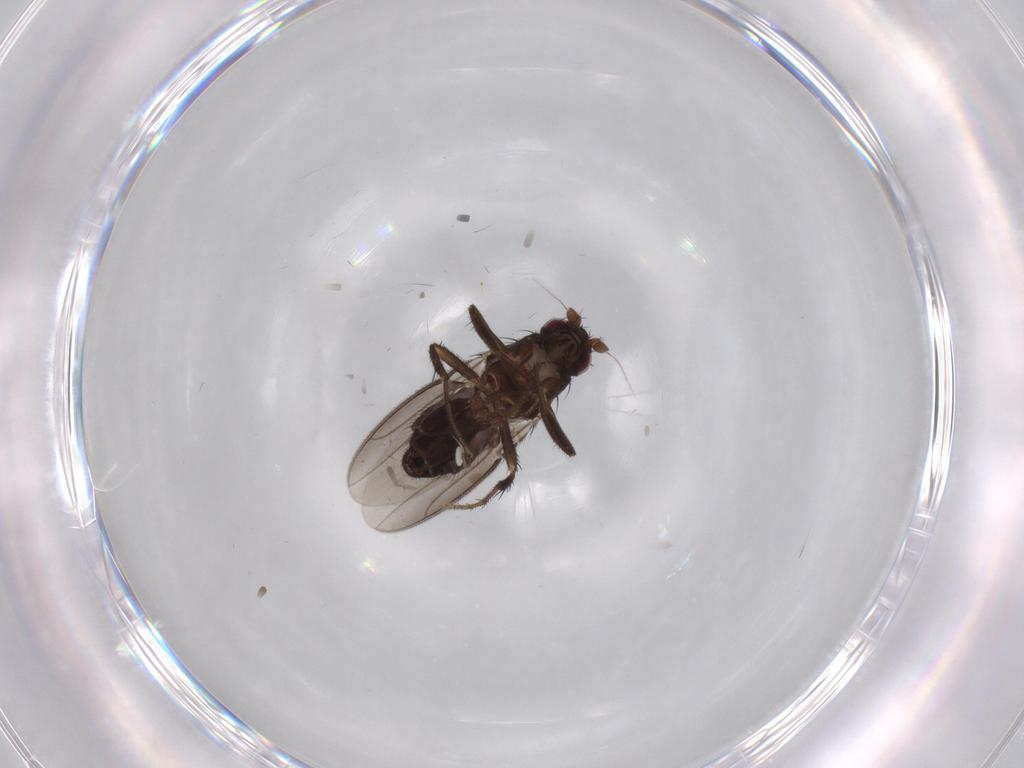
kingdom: Animalia
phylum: Arthropoda
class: Insecta
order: Diptera
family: Sphaeroceridae
